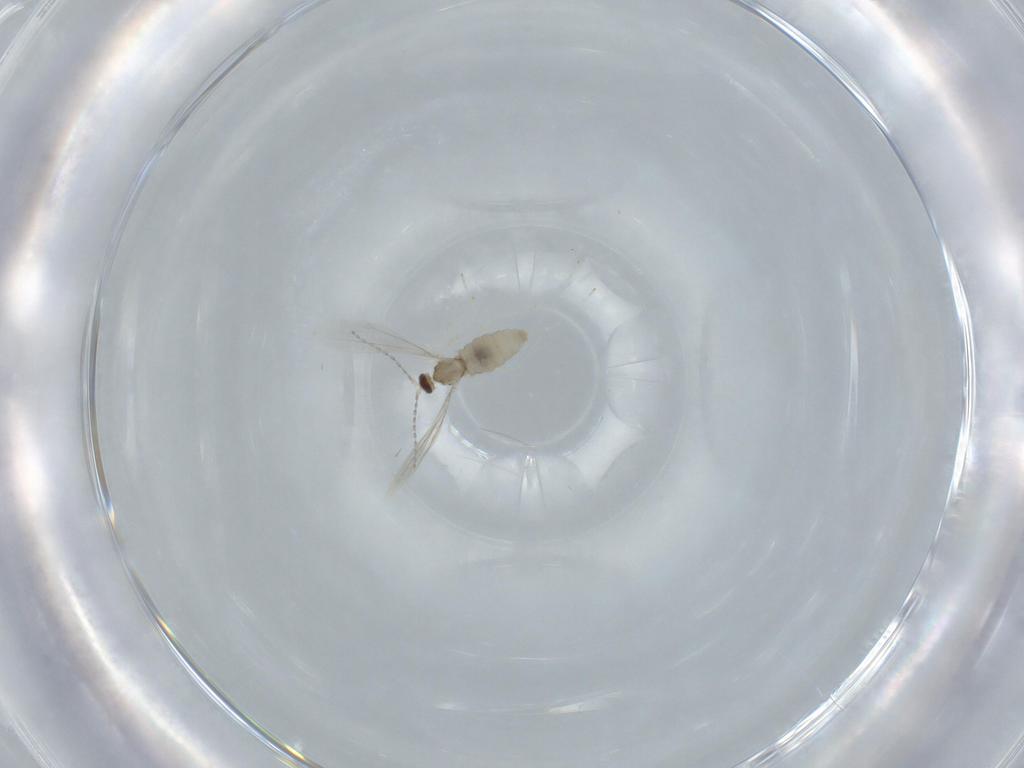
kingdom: Animalia
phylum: Arthropoda
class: Insecta
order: Diptera
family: Cecidomyiidae
